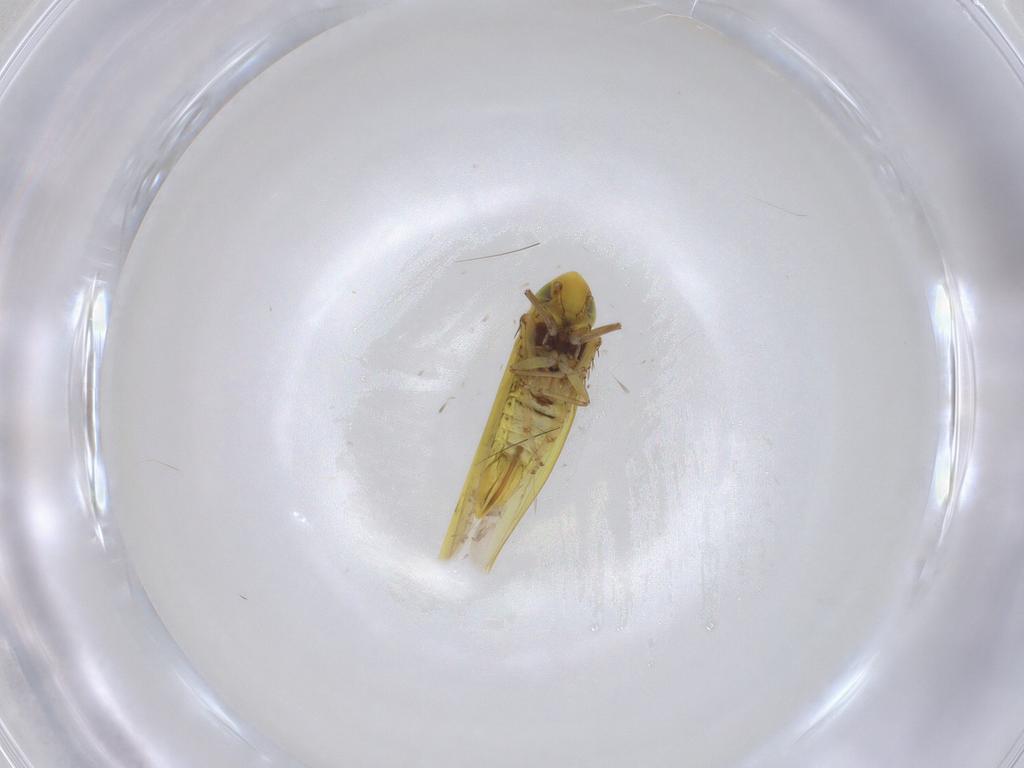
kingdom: Animalia
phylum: Arthropoda
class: Insecta
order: Hemiptera
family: Cicadellidae
